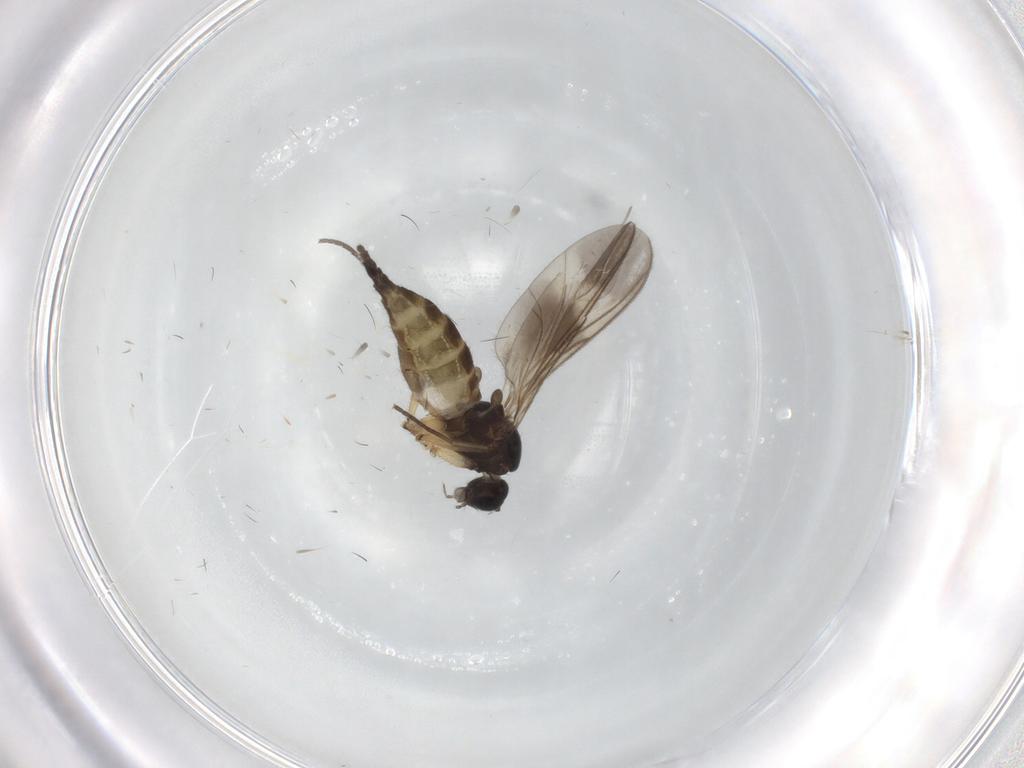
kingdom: Animalia
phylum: Arthropoda
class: Insecta
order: Diptera
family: Sciaridae
